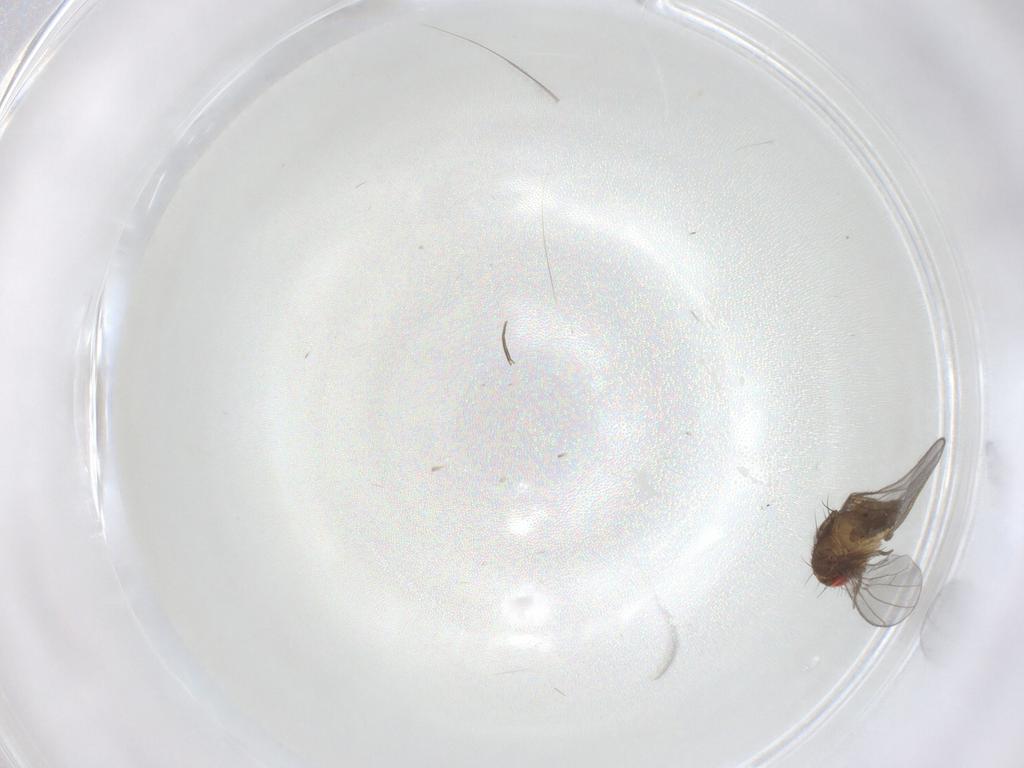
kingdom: Animalia
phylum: Arthropoda
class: Insecta
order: Diptera
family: Phoridae
